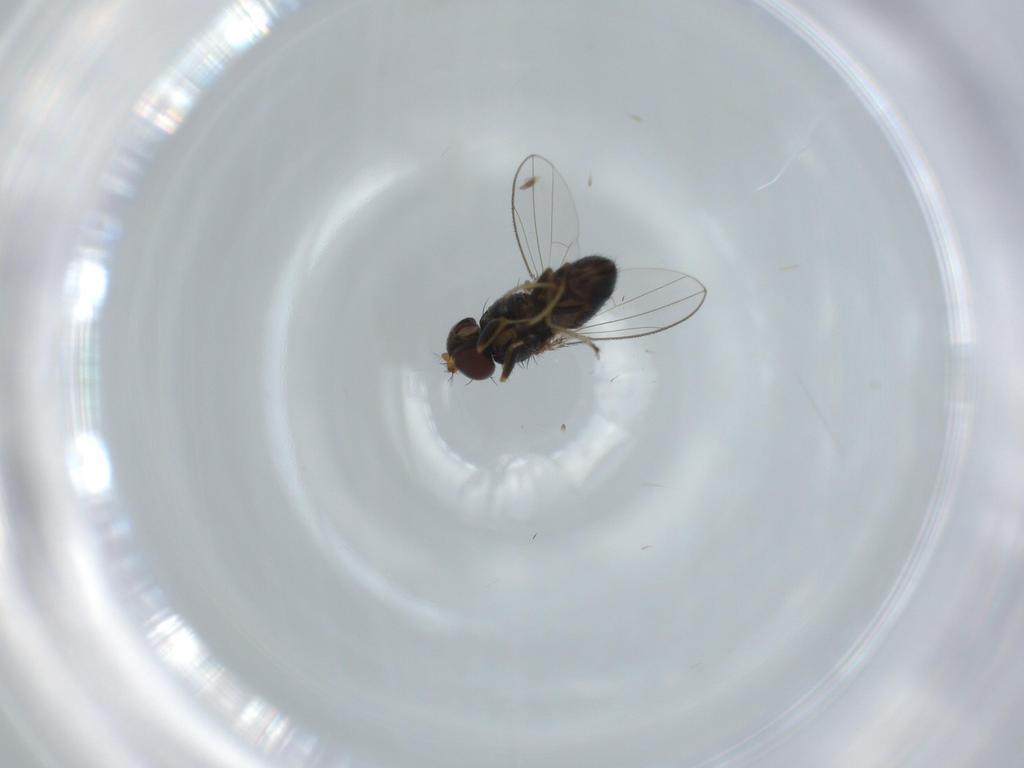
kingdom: Animalia
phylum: Arthropoda
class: Insecta
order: Diptera
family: Ephydridae
